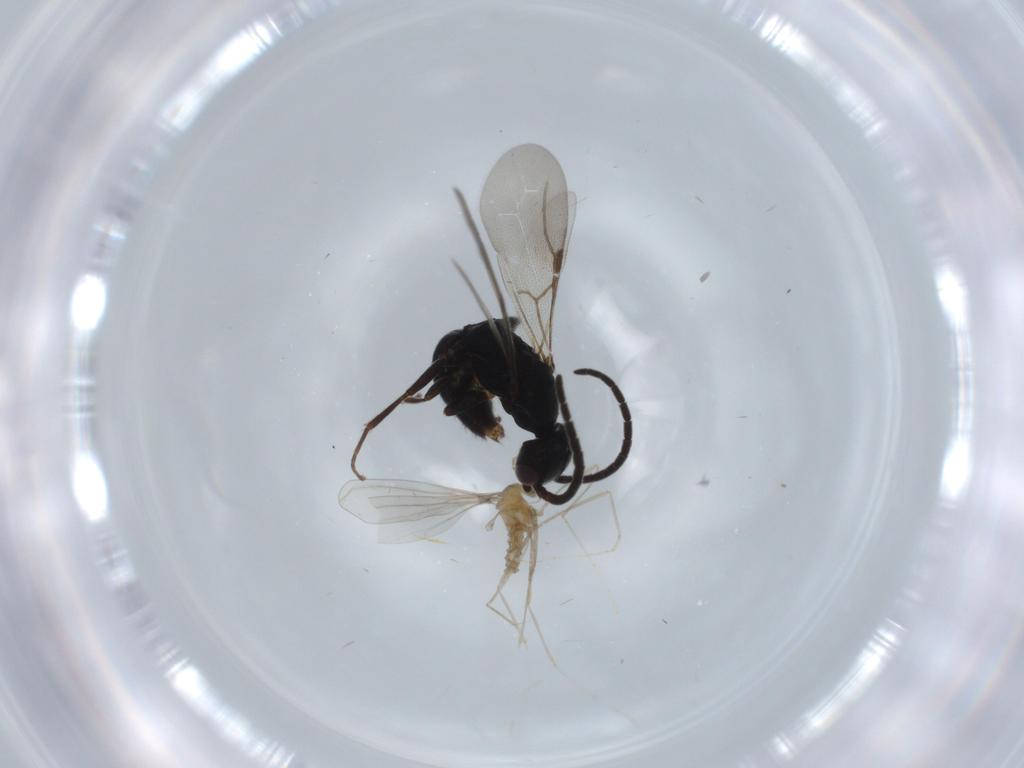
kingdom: Animalia
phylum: Arthropoda
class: Insecta
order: Diptera
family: Cecidomyiidae
